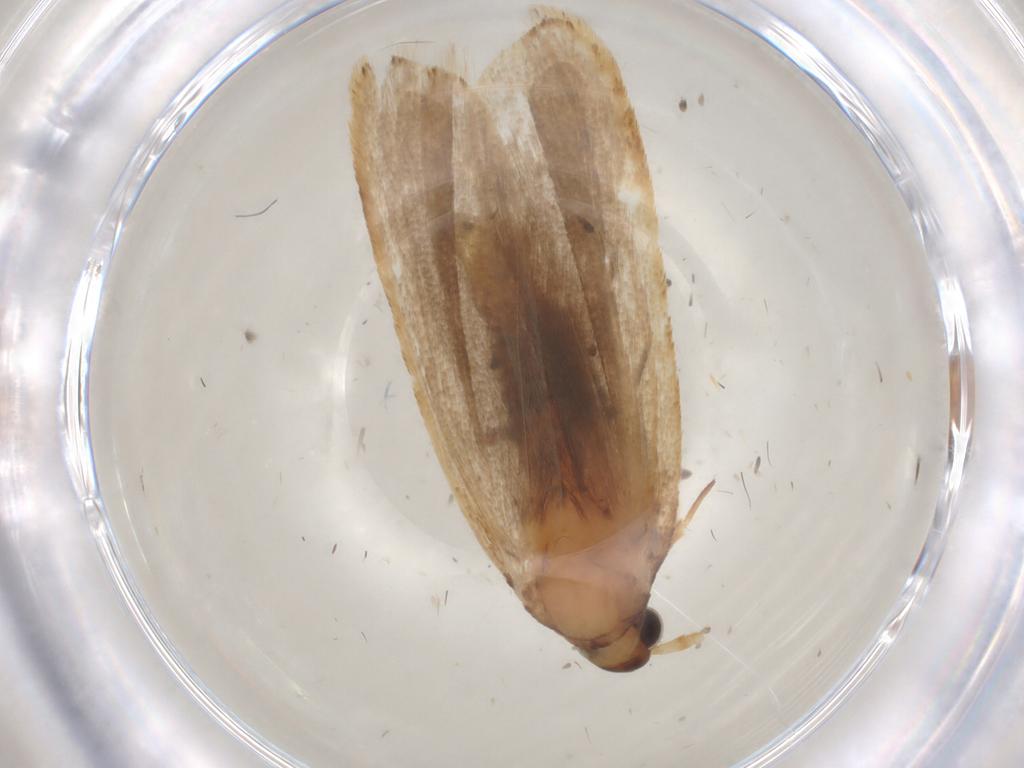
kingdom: Animalia
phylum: Arthropoda
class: Insecta
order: Lepidoptera
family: Lecithoceridae
